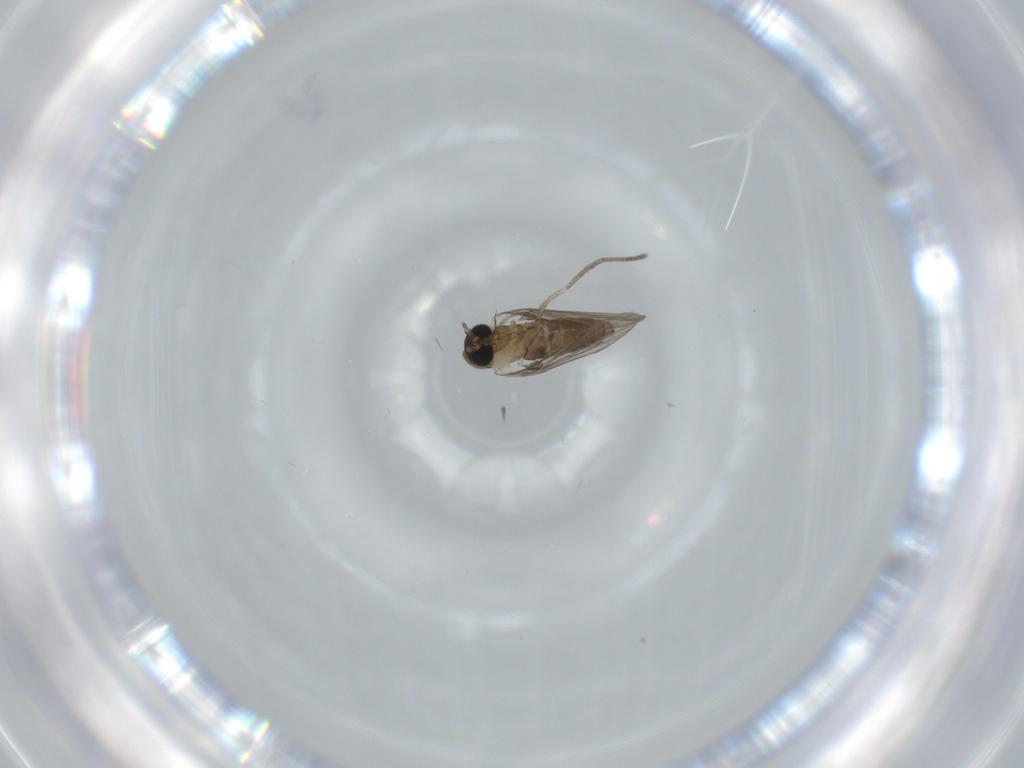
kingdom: Animalia
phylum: Arthropoda
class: Insecta
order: Diptera
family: Psychodidae
